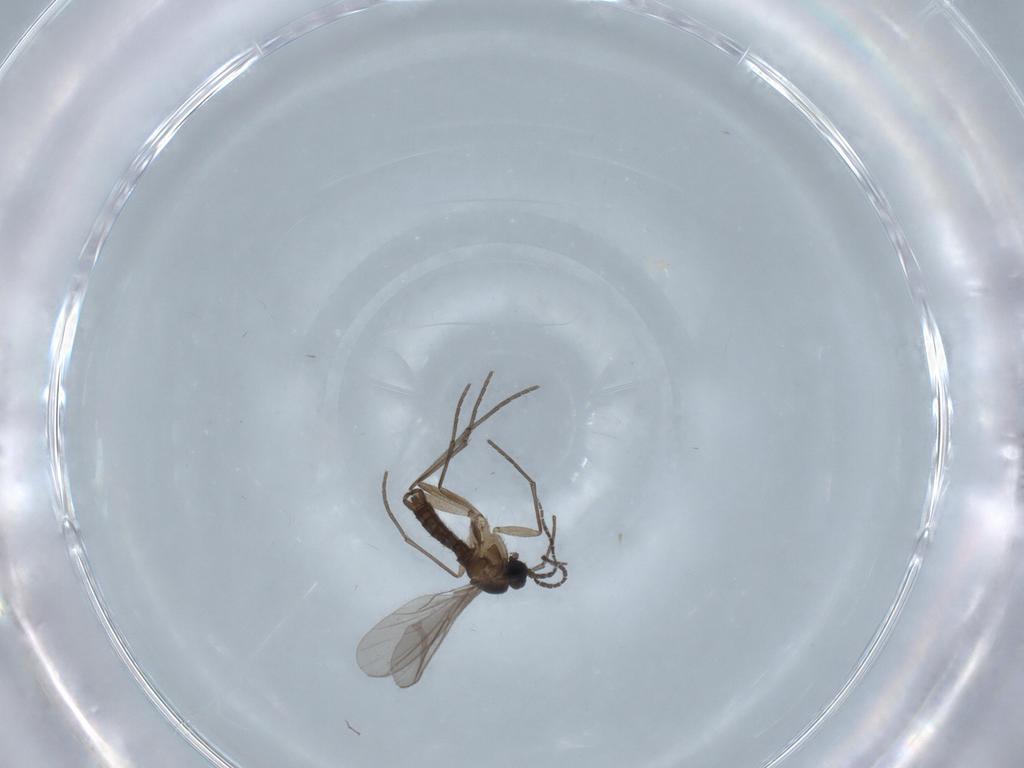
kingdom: Animalia
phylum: Arthropoda
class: Insecta
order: Diptera
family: Sciaridae
